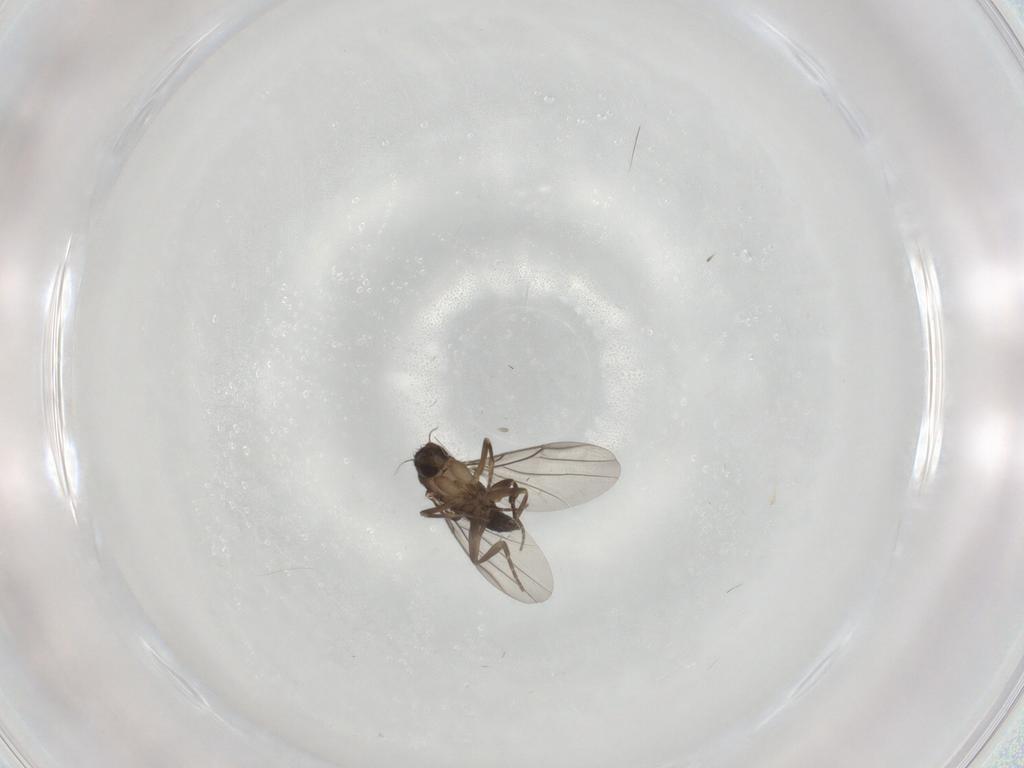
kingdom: Animalia
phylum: Arthropoda
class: Insecta
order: Diptera
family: Phoridae
